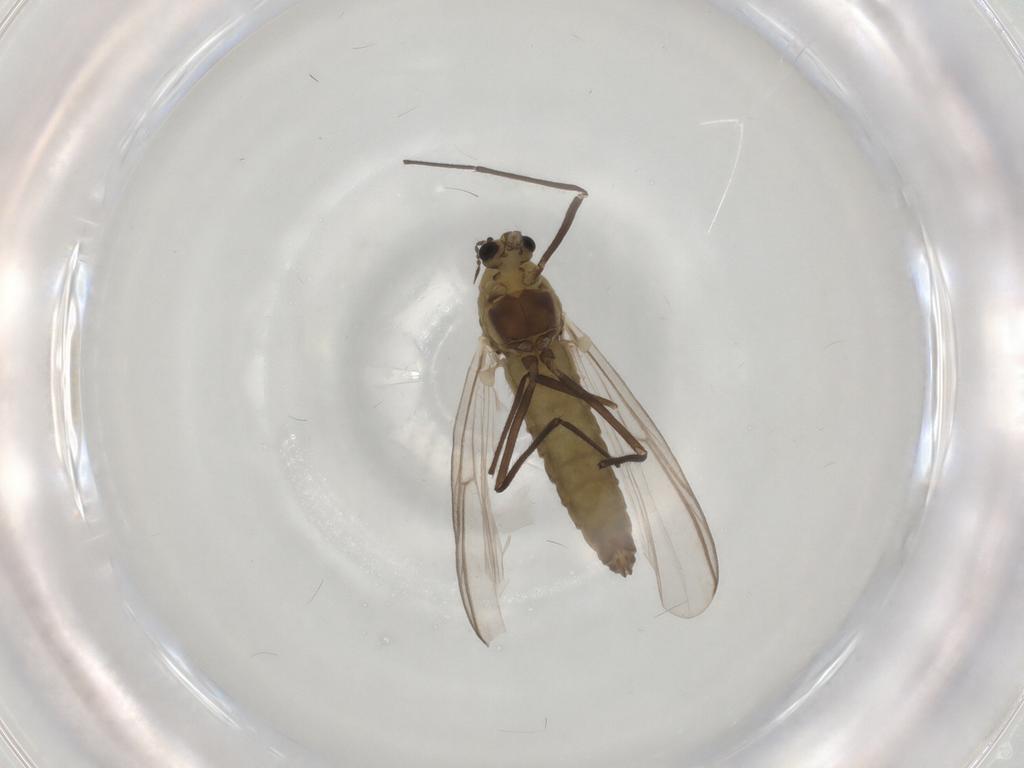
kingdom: Animalia
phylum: Arthropoda
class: Insecta
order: Diptera
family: Chironomidae
